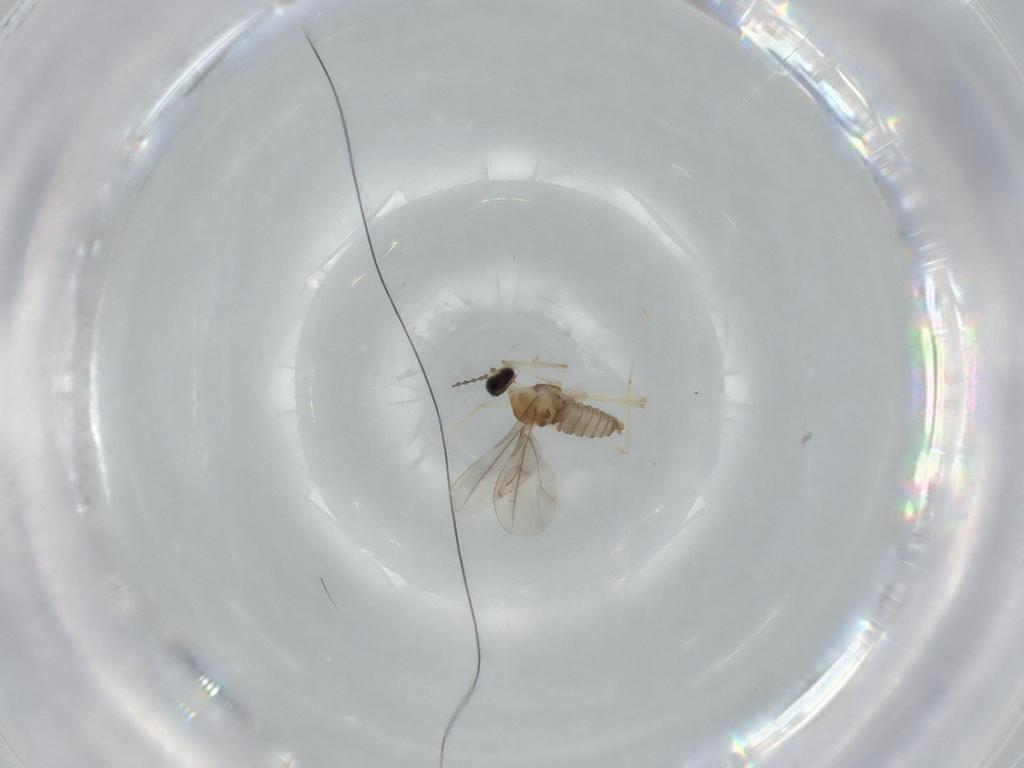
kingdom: Animalia
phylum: Arthropoda
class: Insecta
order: Diptera
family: Cecidomyiidae
